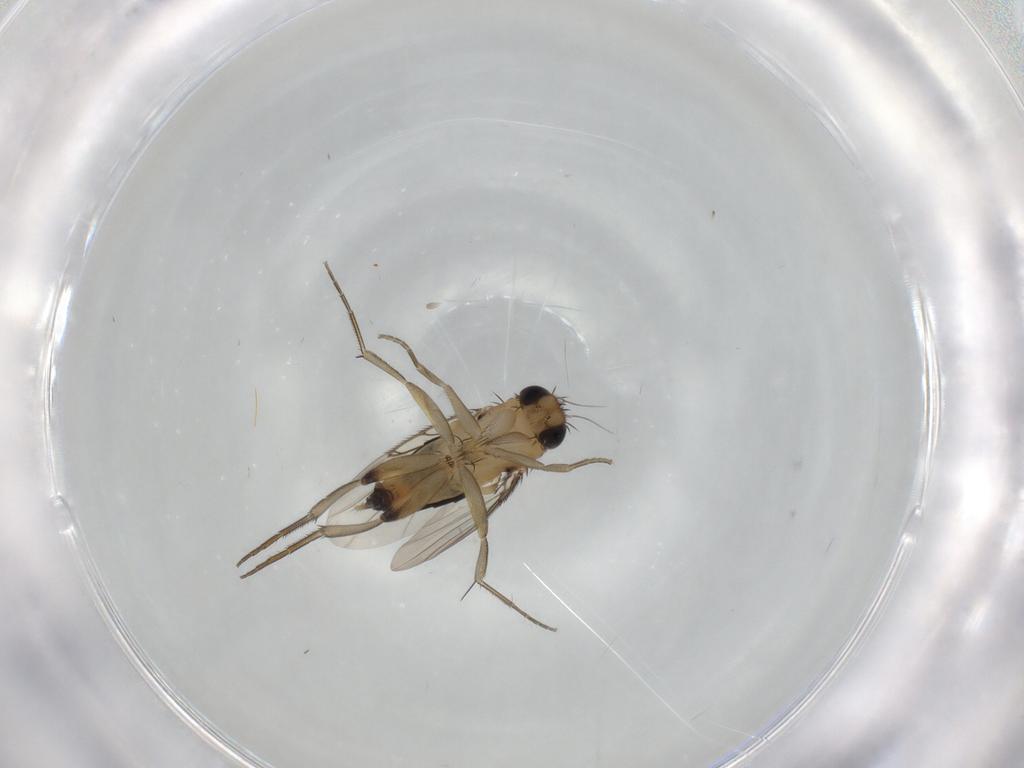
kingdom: Animalia
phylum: Arthropoda
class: Insecta
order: Diptera
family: Phoridae
